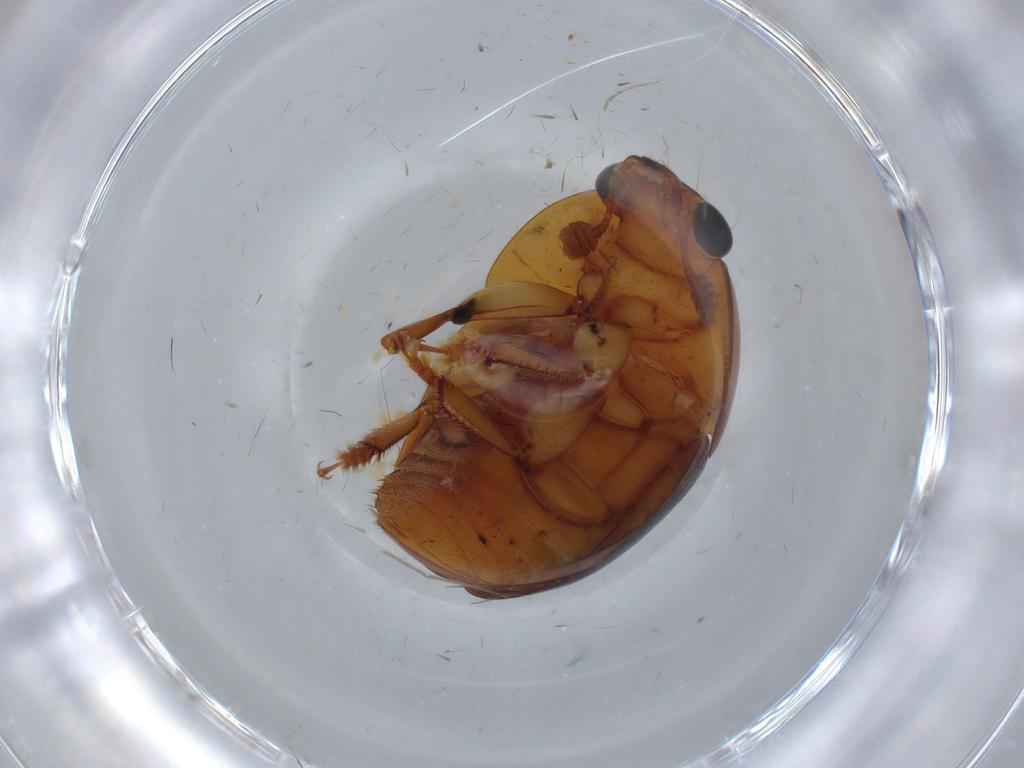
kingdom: Animalia
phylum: Arthropoda
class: Insecta
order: Coleoptera
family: Nitidulidae
